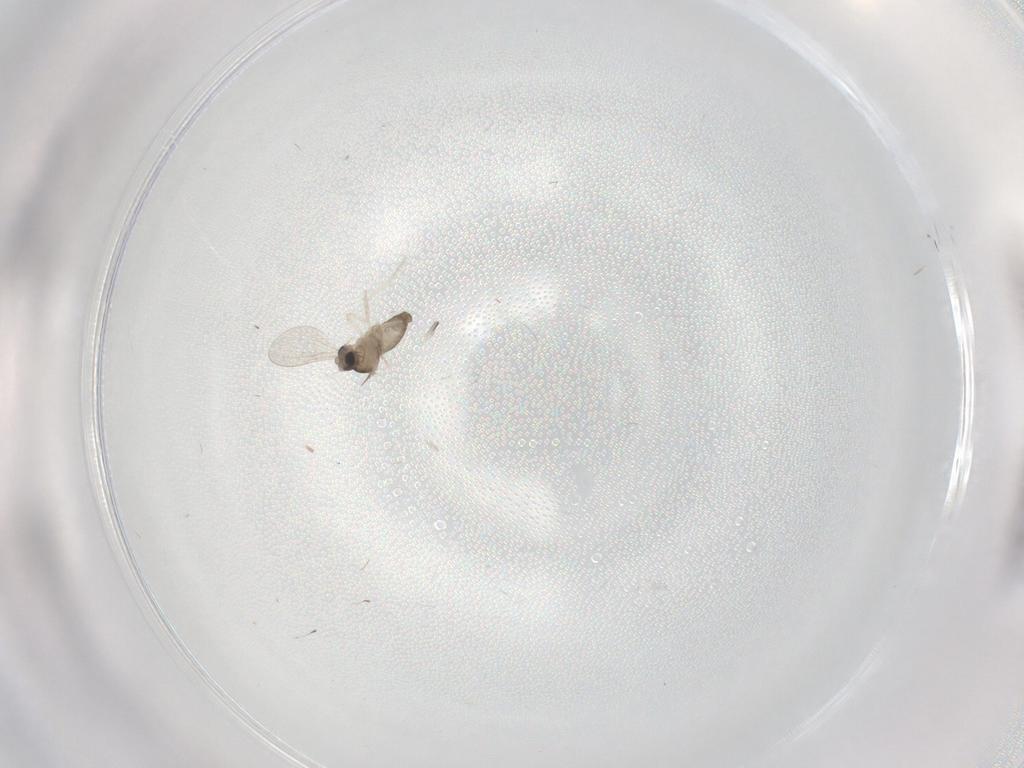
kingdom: Animalia
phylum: Arthropoda
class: Insecta
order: Diptera
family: Cecidomyiidae
